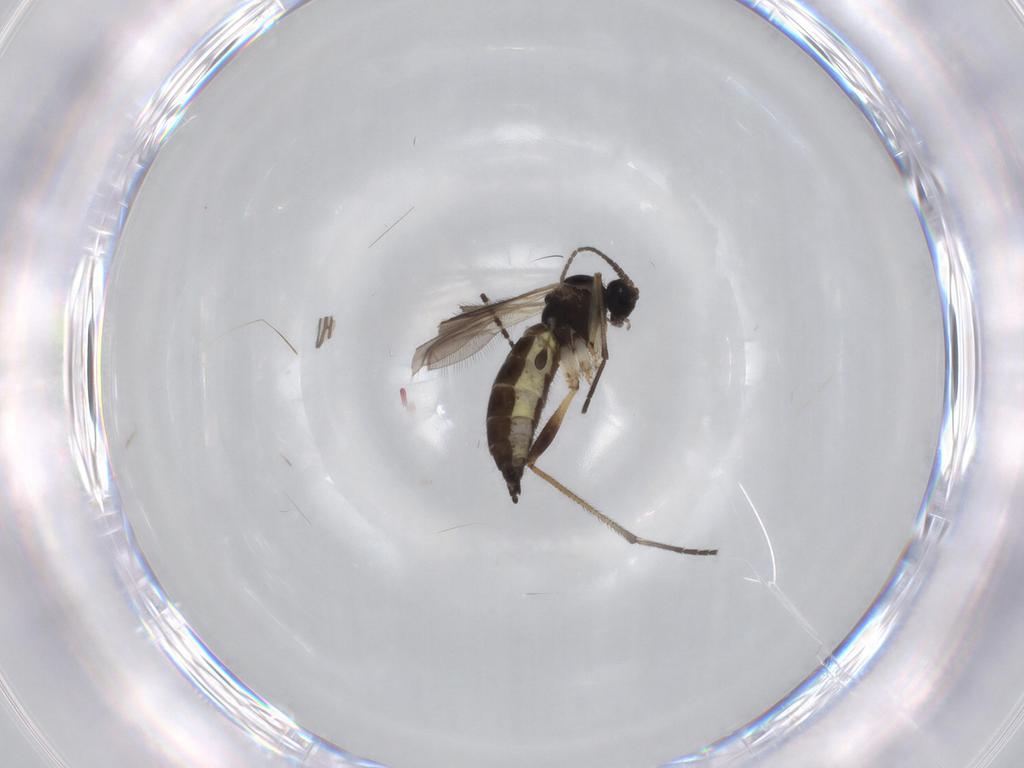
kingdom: Animalia
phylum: Arthropoda
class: Insecta
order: Diptera
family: Sciaridae
